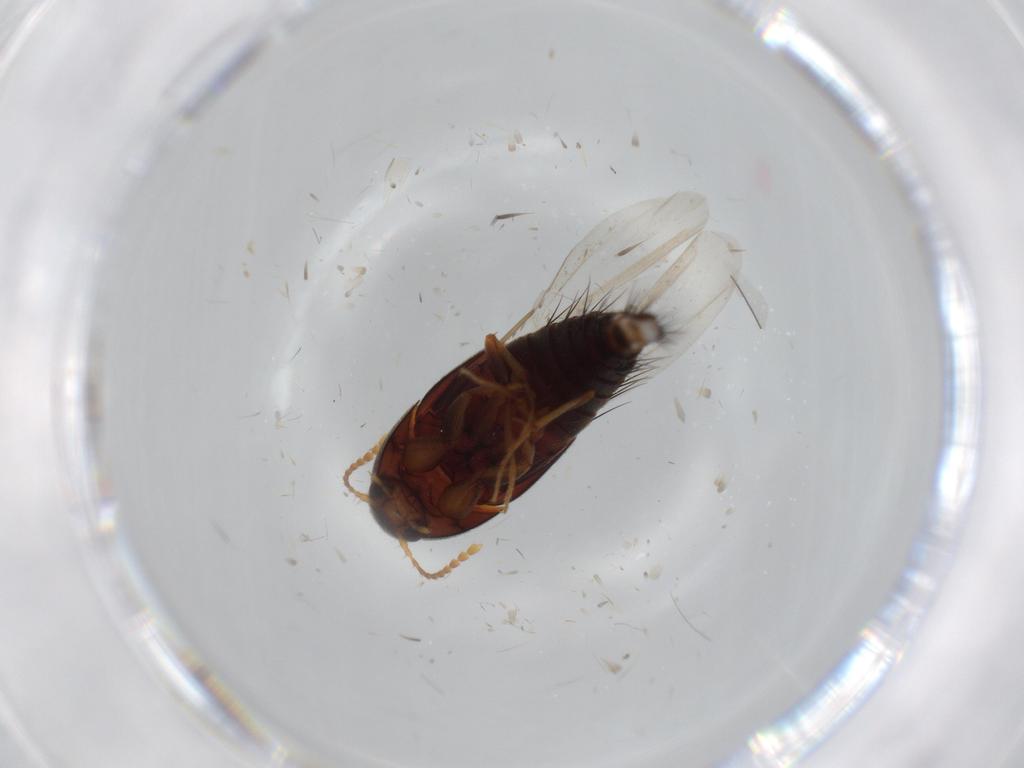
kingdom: Animalia
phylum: Arthropoda
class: Insecta
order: Coleoptera
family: Staphylinidae
